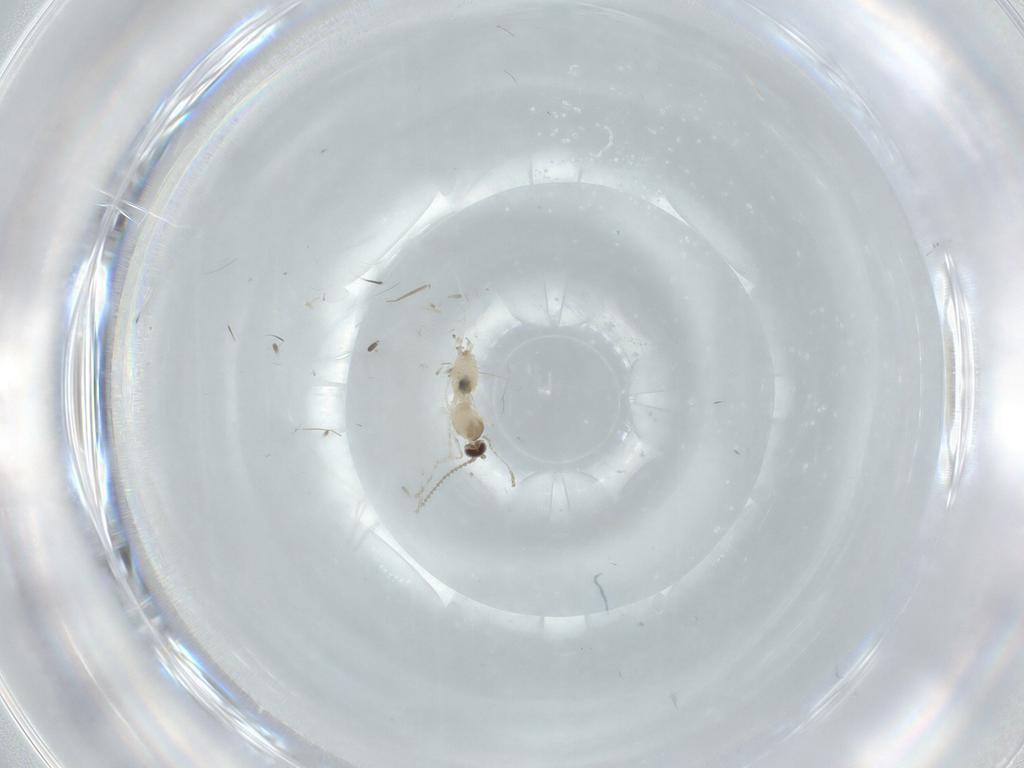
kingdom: Animalia
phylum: Arthropoda
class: Insecta
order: Diptera
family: Cecidomyiidae
